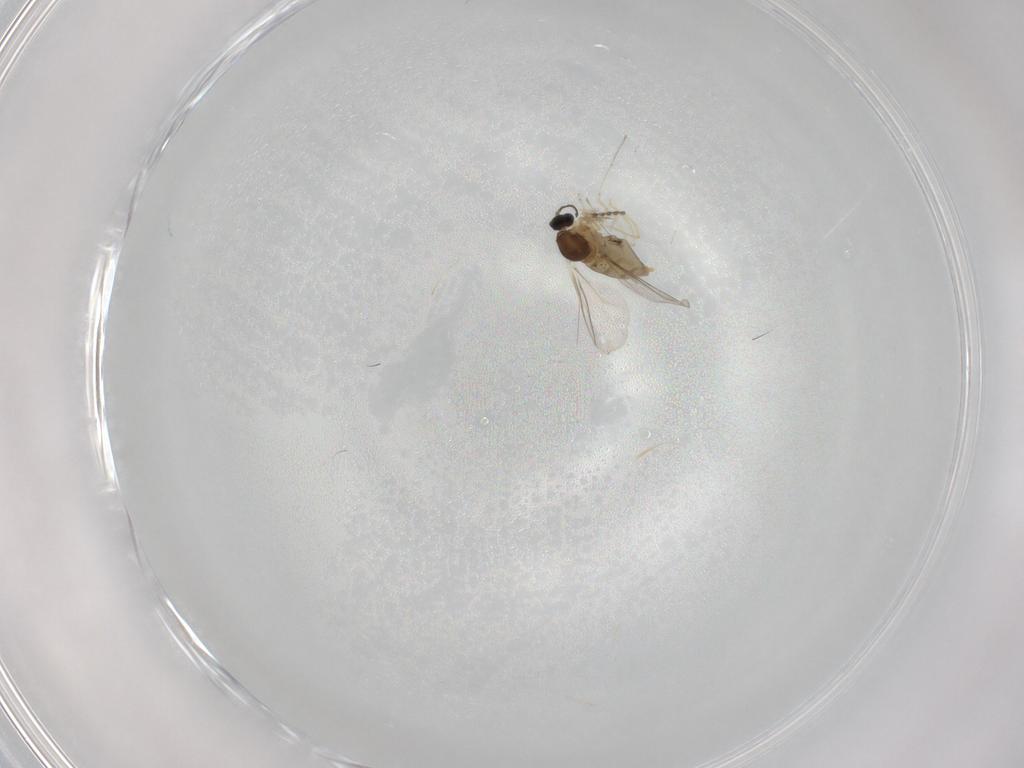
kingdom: Animalia
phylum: Arthropoda
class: Insecta
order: Diptera
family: Cecidomyiidae
